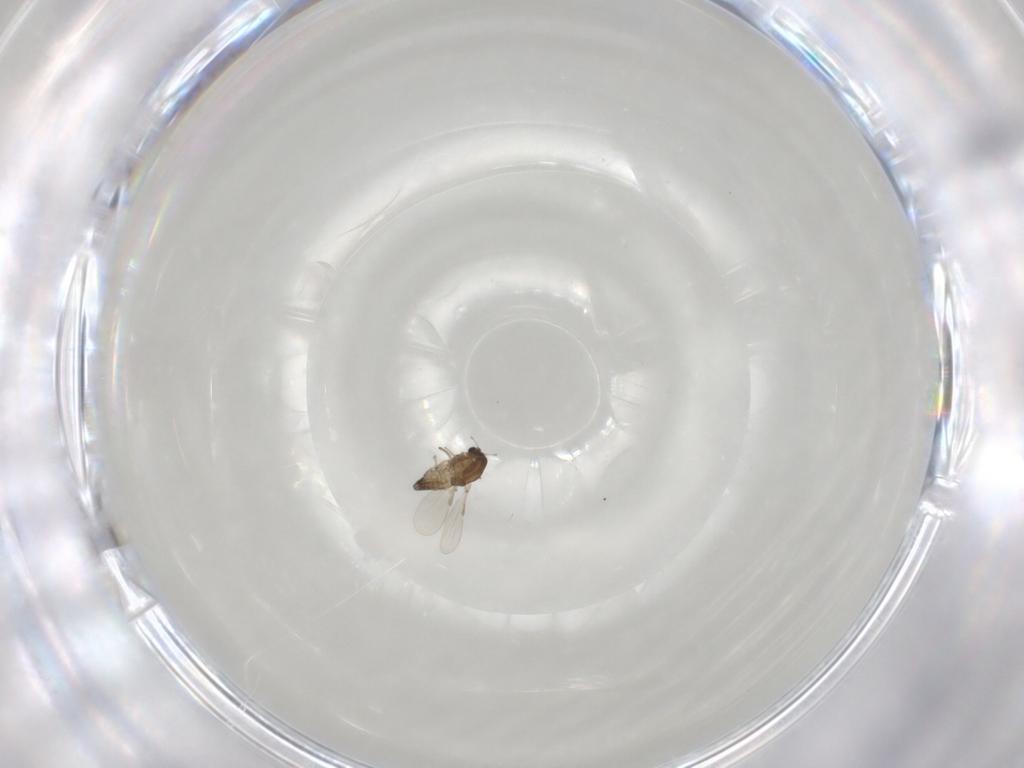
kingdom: Animalia
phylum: Arthropoda
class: Insecta
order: Diptera
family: Chironomidae
